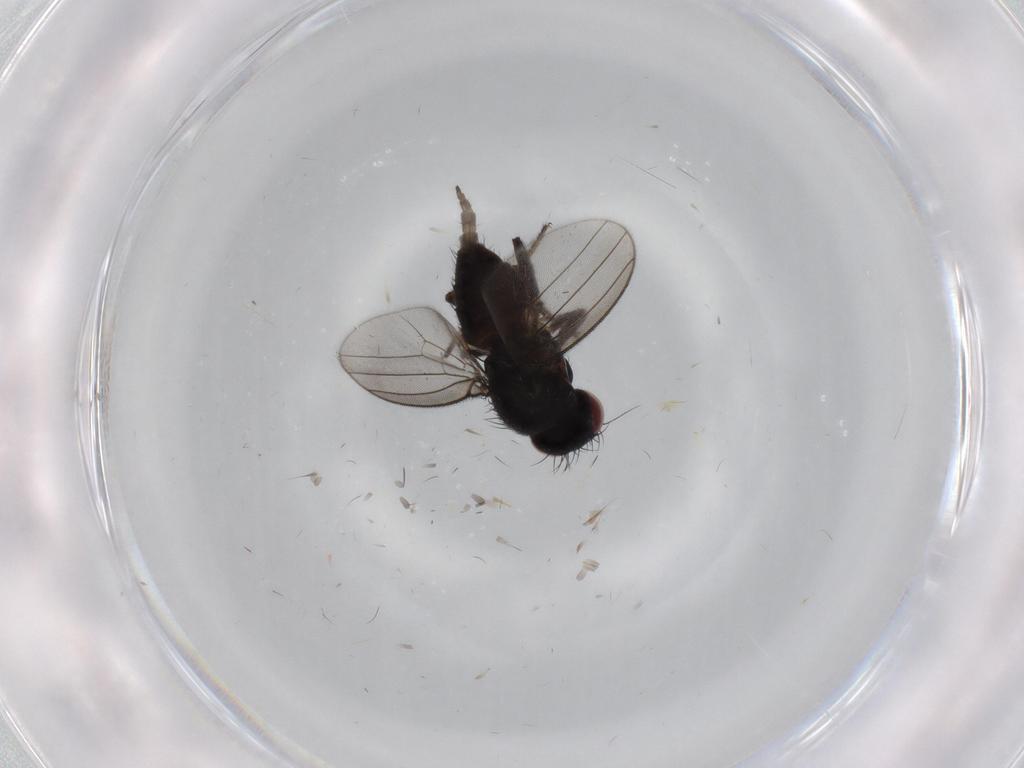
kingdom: Animalia
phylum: Arthropoda
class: Insecta
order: Diptera
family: Milichiidae
